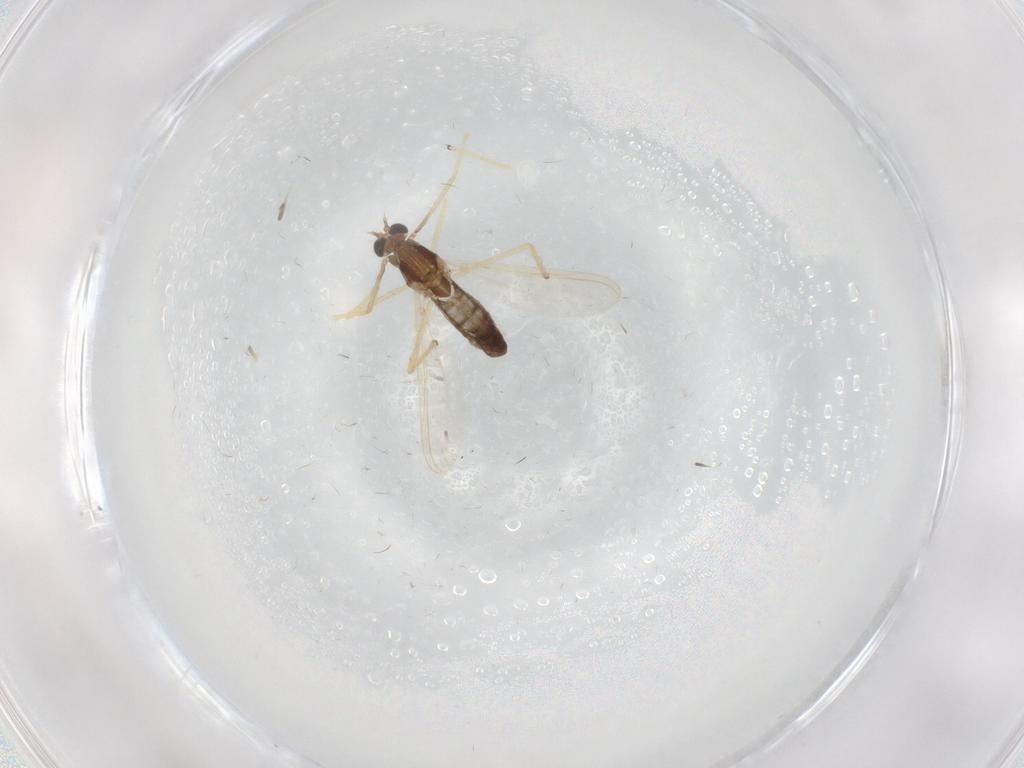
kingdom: Animalia
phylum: Arthropoda
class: Insecta
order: Diptera
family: Chironomidae
